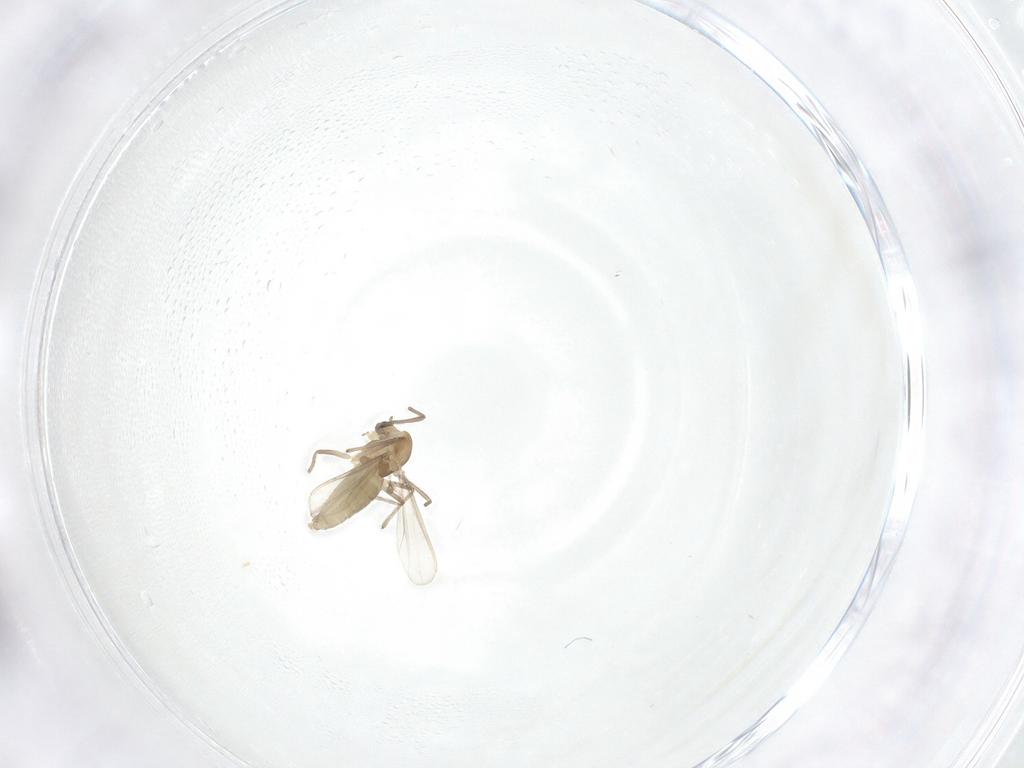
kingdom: Animalia
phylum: Arthropoda
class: Insecta
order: Diptera
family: Chironomidae
